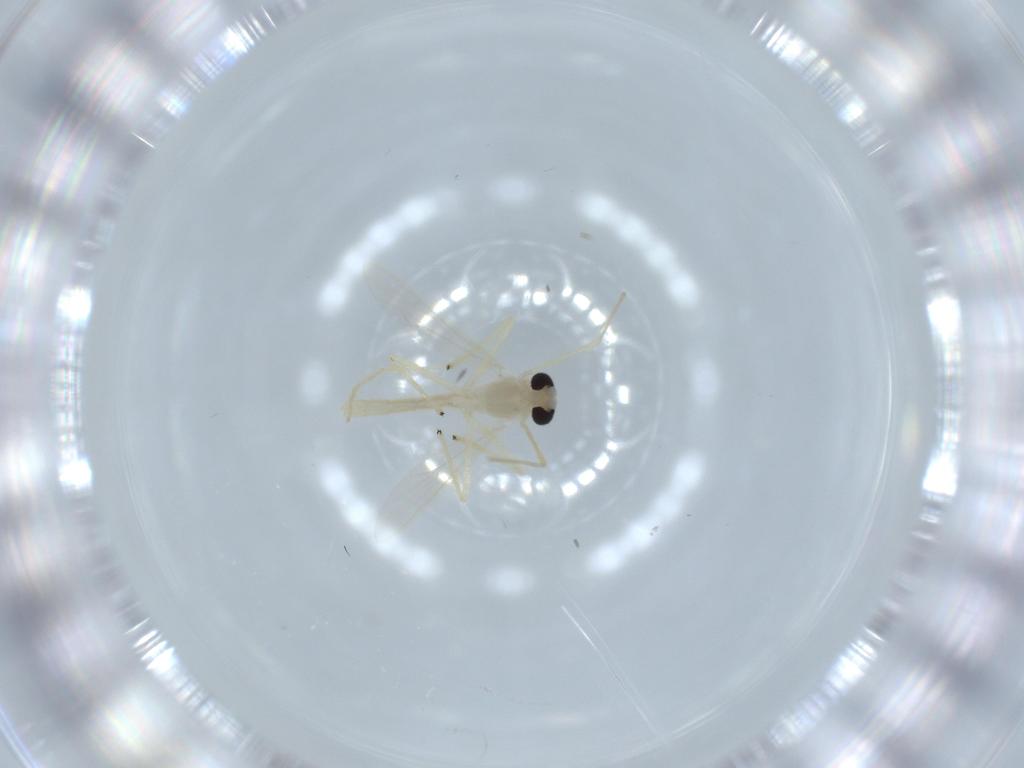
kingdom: Animalia
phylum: Arthropoda
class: Insecta
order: Diptera
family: Chironomidae
